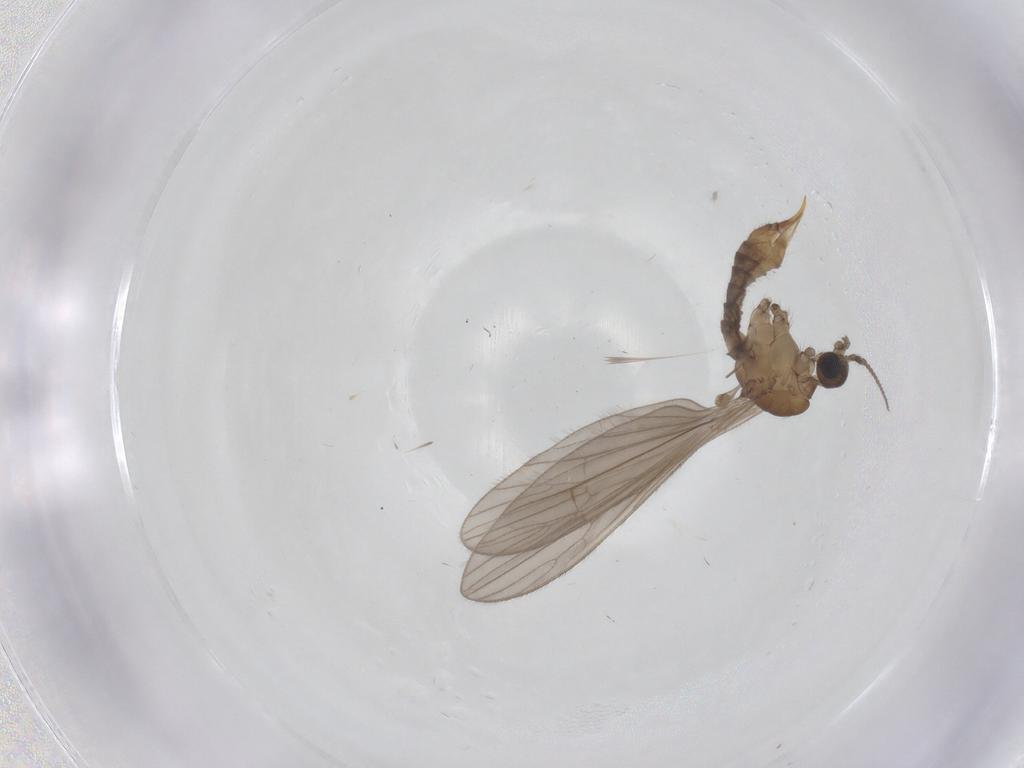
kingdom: Animalia
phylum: Arthropoda
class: Insecta
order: Diptera
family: Limoniidae
